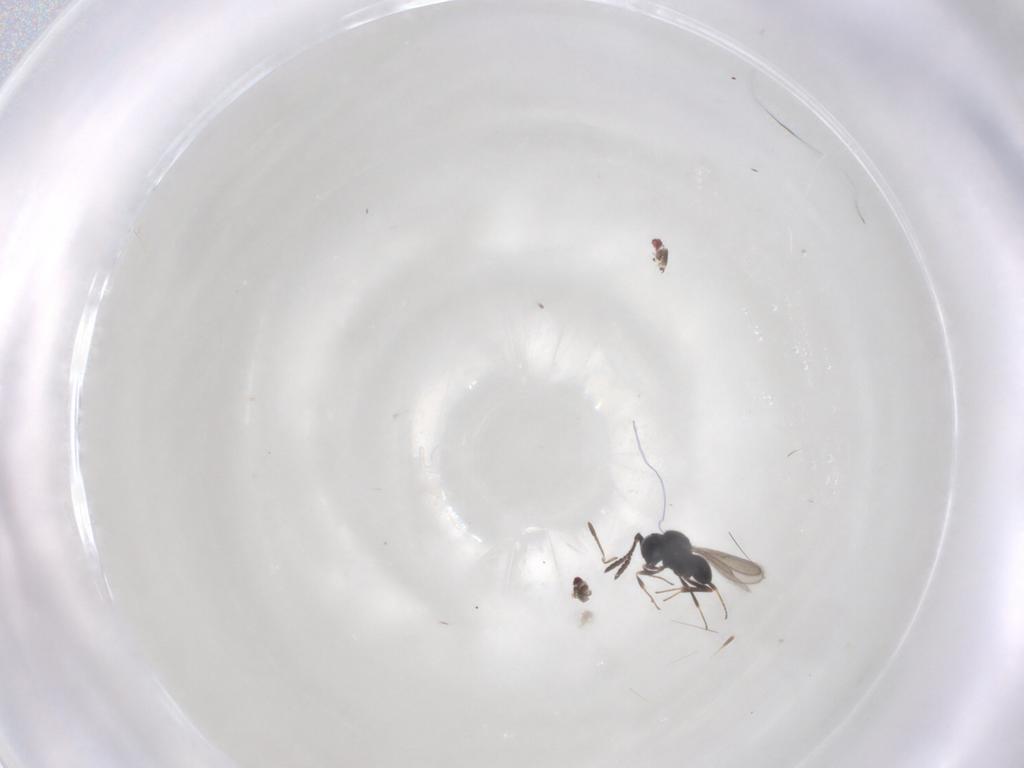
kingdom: Animalia
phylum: Arthropoda
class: Insecta
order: Hymenoptera
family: Scelionidae
